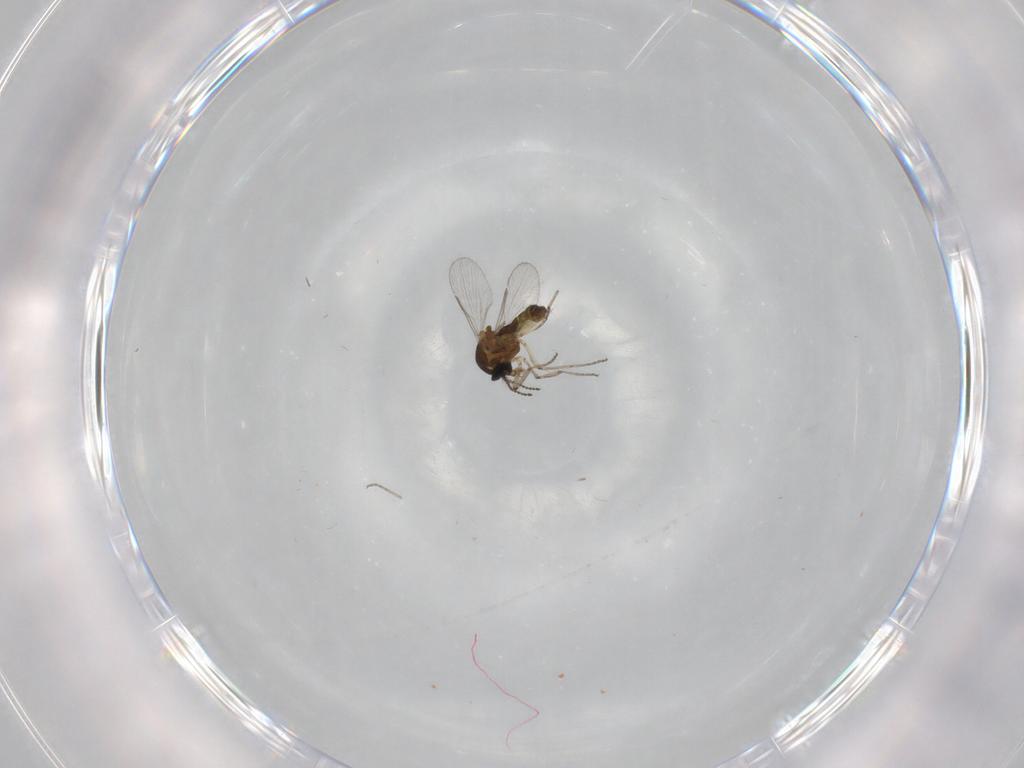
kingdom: Animalia
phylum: Arthropoda
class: Insecta
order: Diptera
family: Ceratopogonidae
